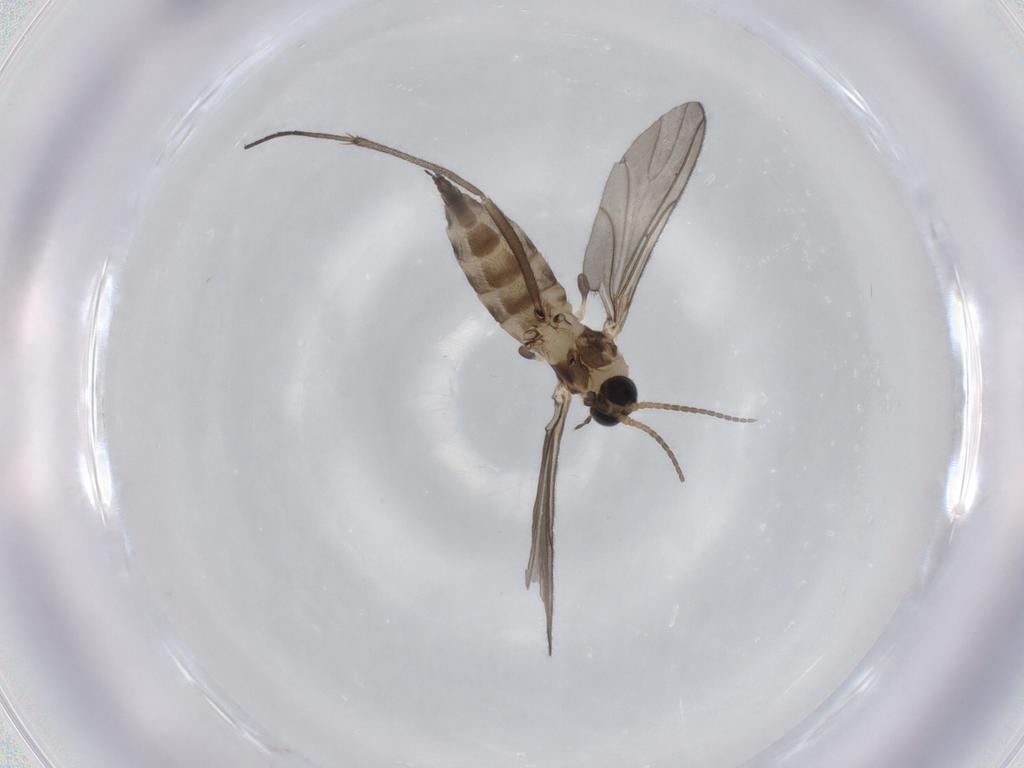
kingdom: Animalia
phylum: Arthropoda
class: Insecta
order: Diptera
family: Sciaridae
